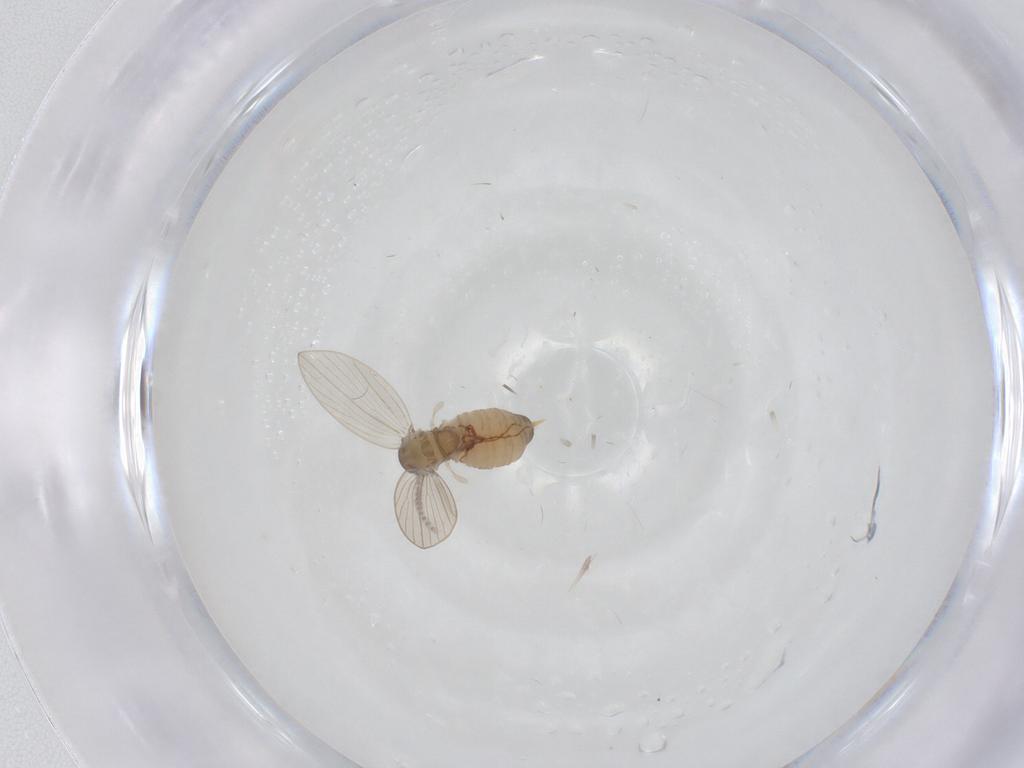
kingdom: Animalia
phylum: Arthropoda
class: Insecta
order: Diptera
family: Psychodidae
